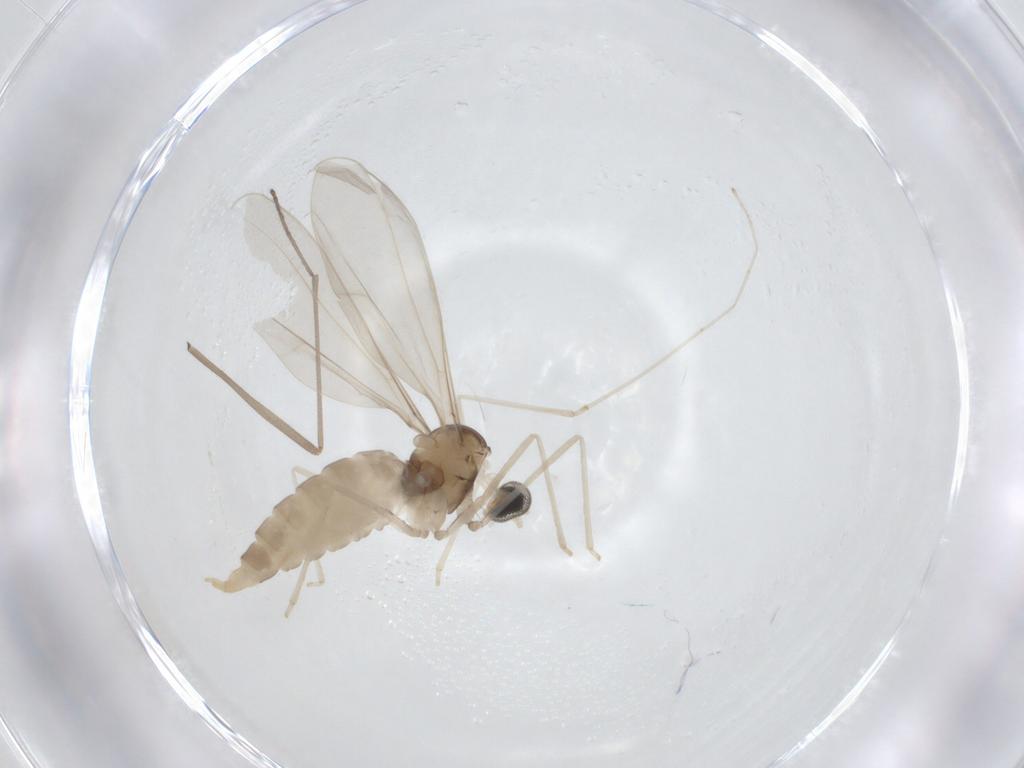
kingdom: Animalia
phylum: Arthropoda
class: Insecta
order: Diptera
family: Limoniidae
